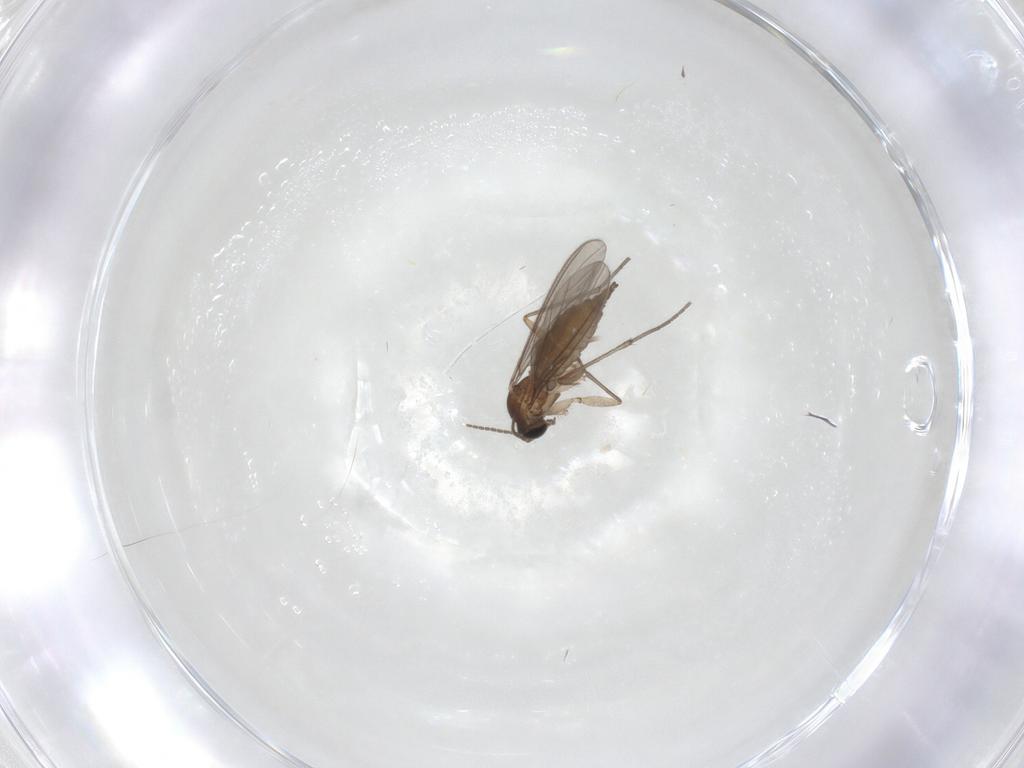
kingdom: Animalia
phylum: Arthropoda
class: Insecta
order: Diptera
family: Sciaridae
